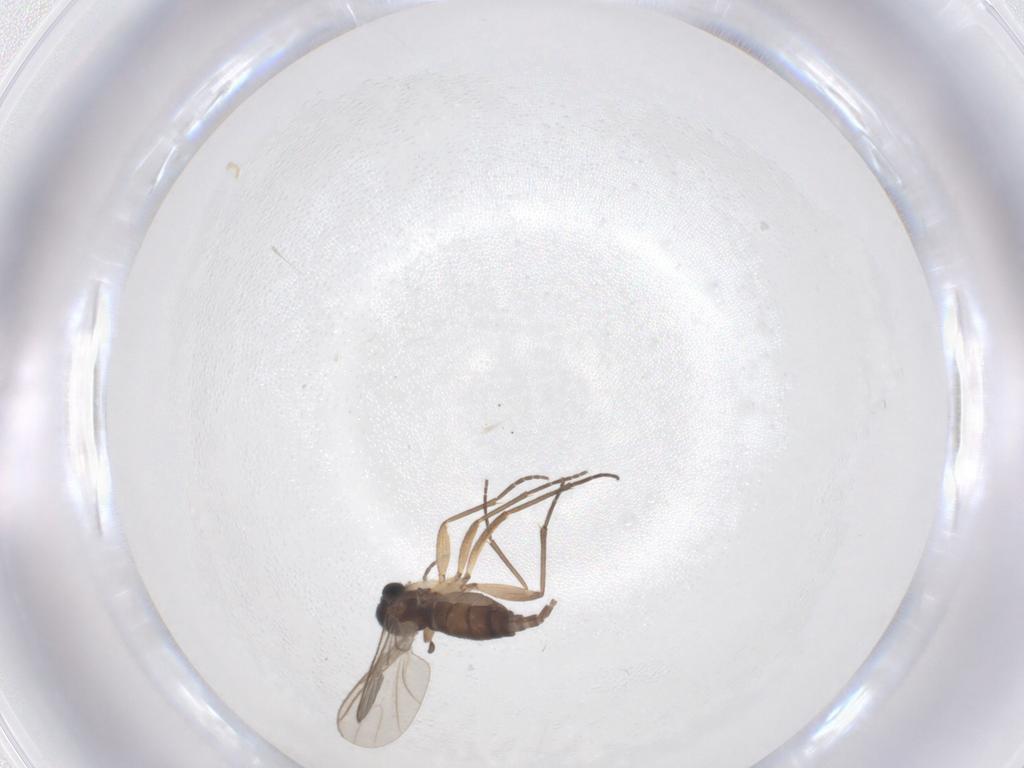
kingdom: Animalia
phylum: Arthropoda
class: Insecta
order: Diptera
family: Sciaridae
